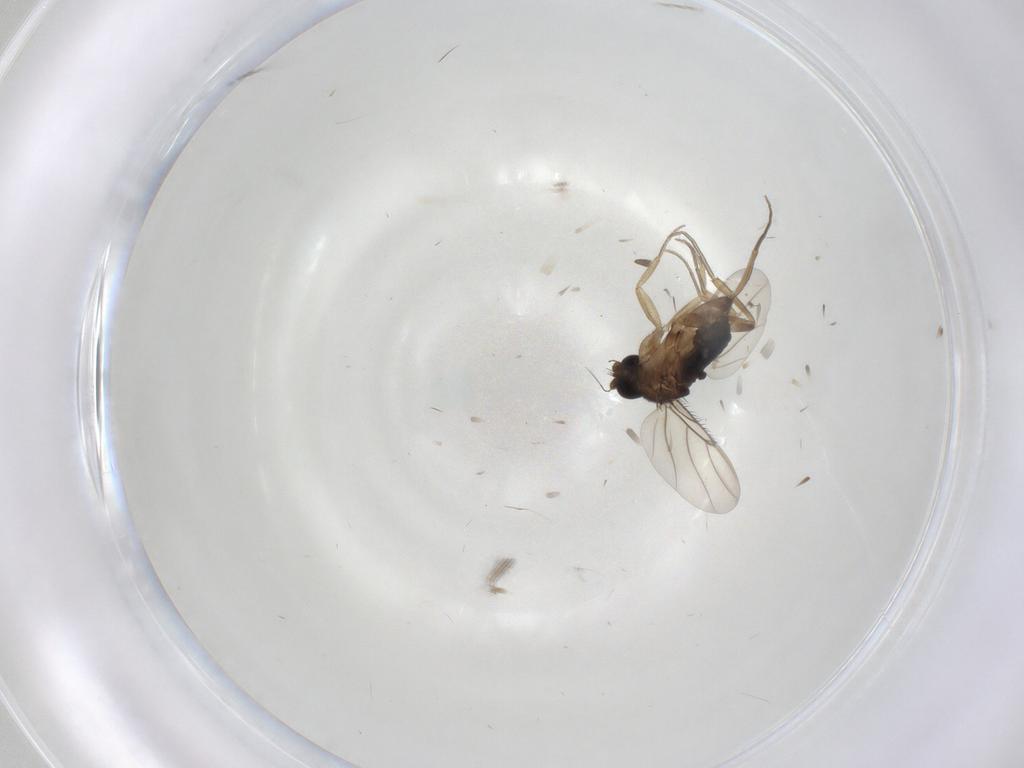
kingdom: Animalia
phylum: Arthropoda
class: Insecta
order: Diptera
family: Phoridae
